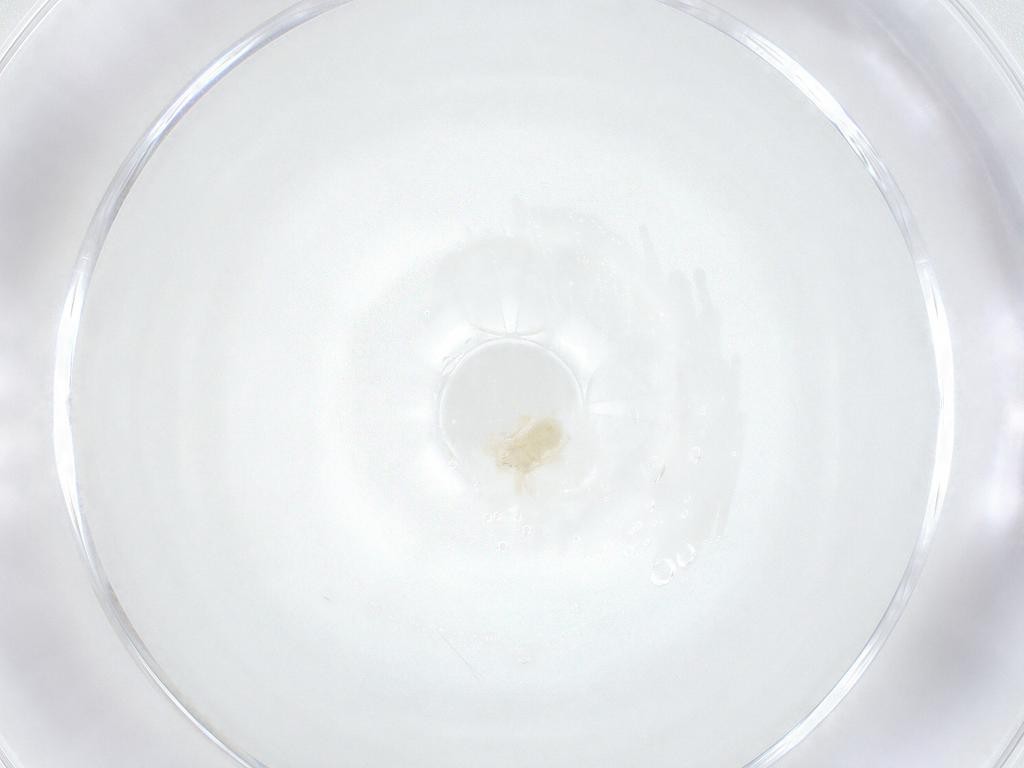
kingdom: Animalia
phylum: Arthropoda
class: Arachnida
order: Trombidiformes
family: Anystidae
